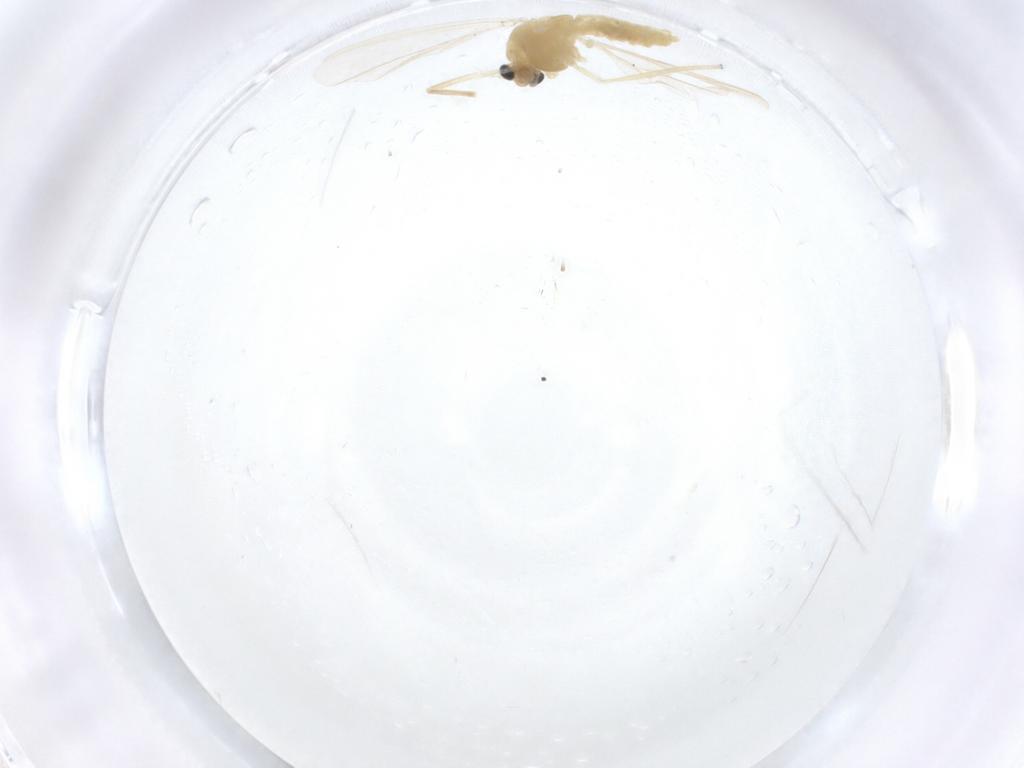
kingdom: Animalia
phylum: Arthropoda
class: Insecta
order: Diptera
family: Chironomidae
